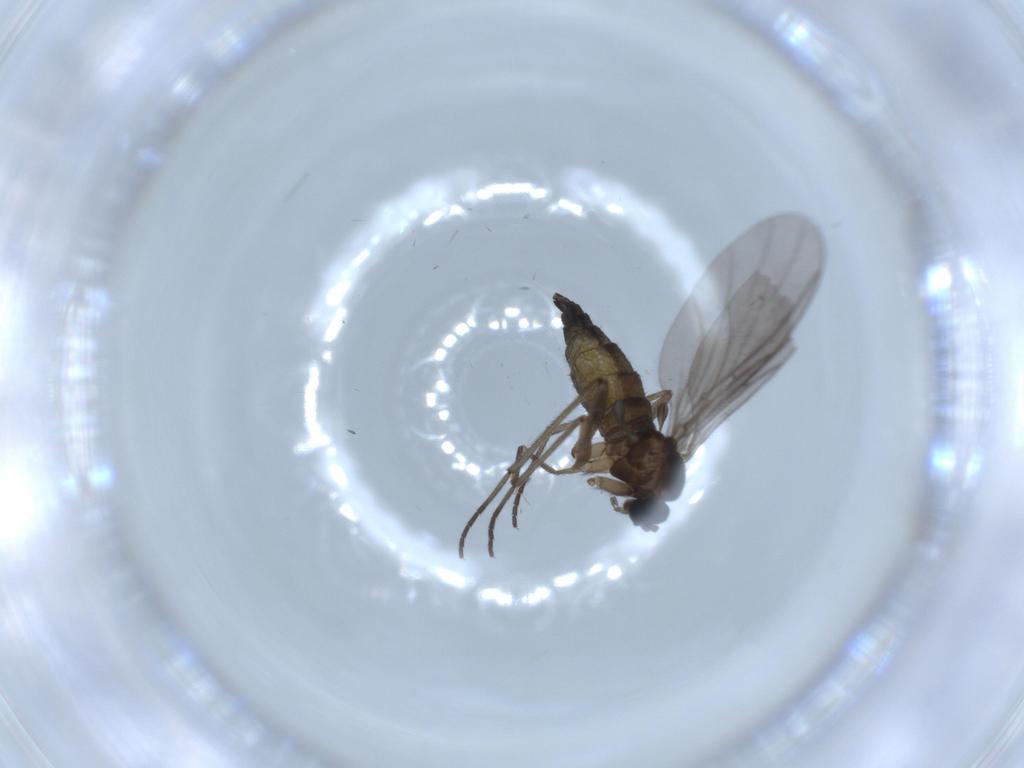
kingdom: Animalia
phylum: Arthropoda
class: Insecta
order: Diptera
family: Sciaridae
